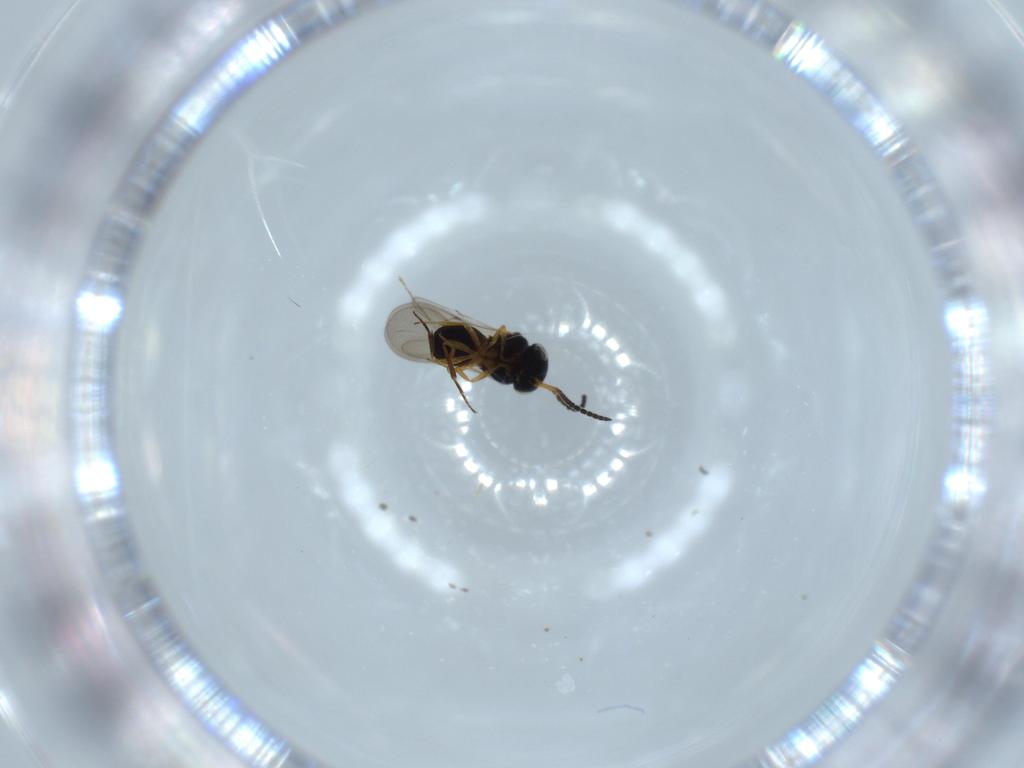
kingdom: Animalia
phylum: Arthropoda
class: Insecta
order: Hymenoptera
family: Scelionidae
